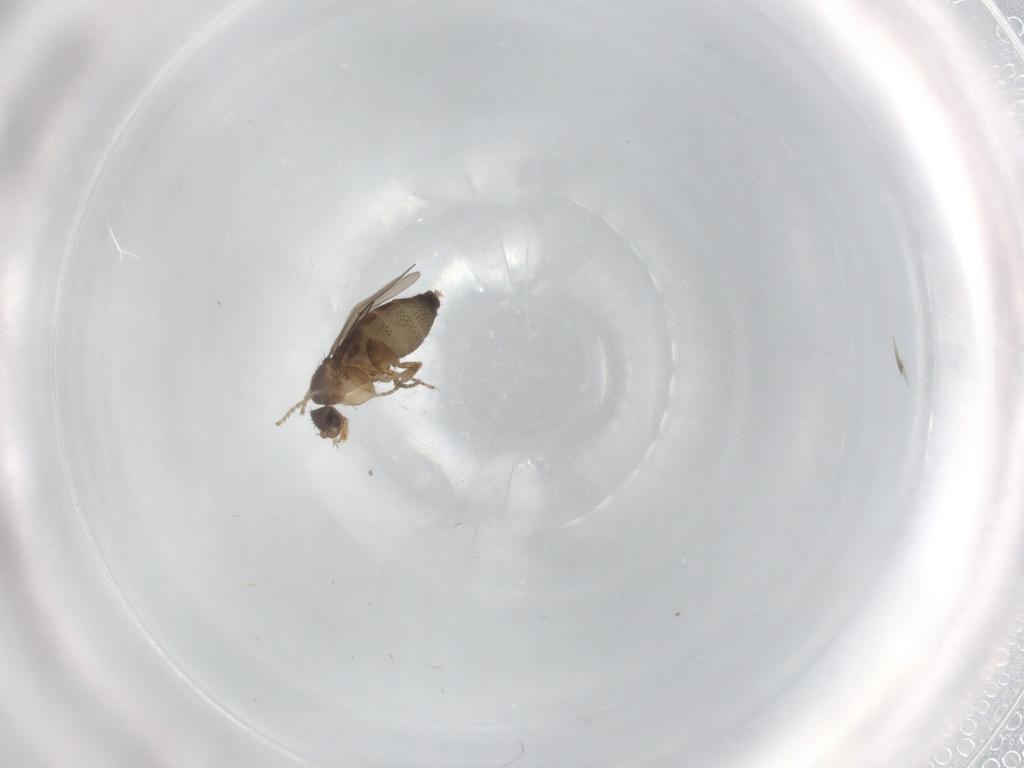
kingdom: Animalia
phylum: Arthropoda
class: Insecta
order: Diptera
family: Phoridae
